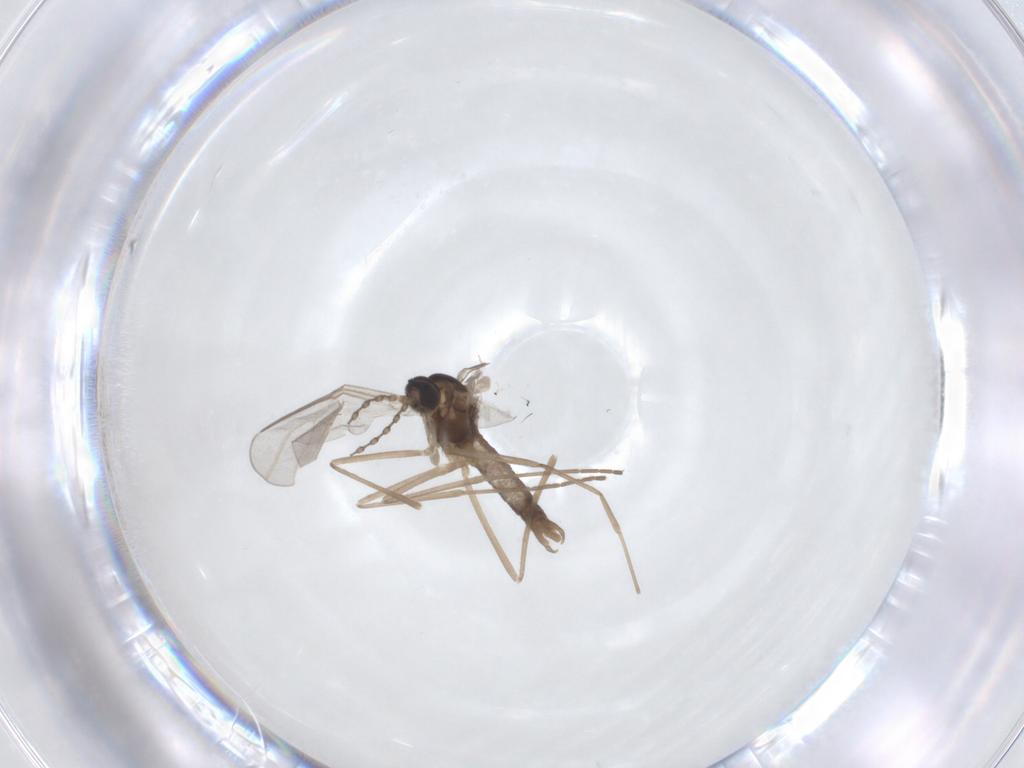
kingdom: Animalia
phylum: Arthropoda
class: Insecta
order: Diptera
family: Cecidomyiidae
